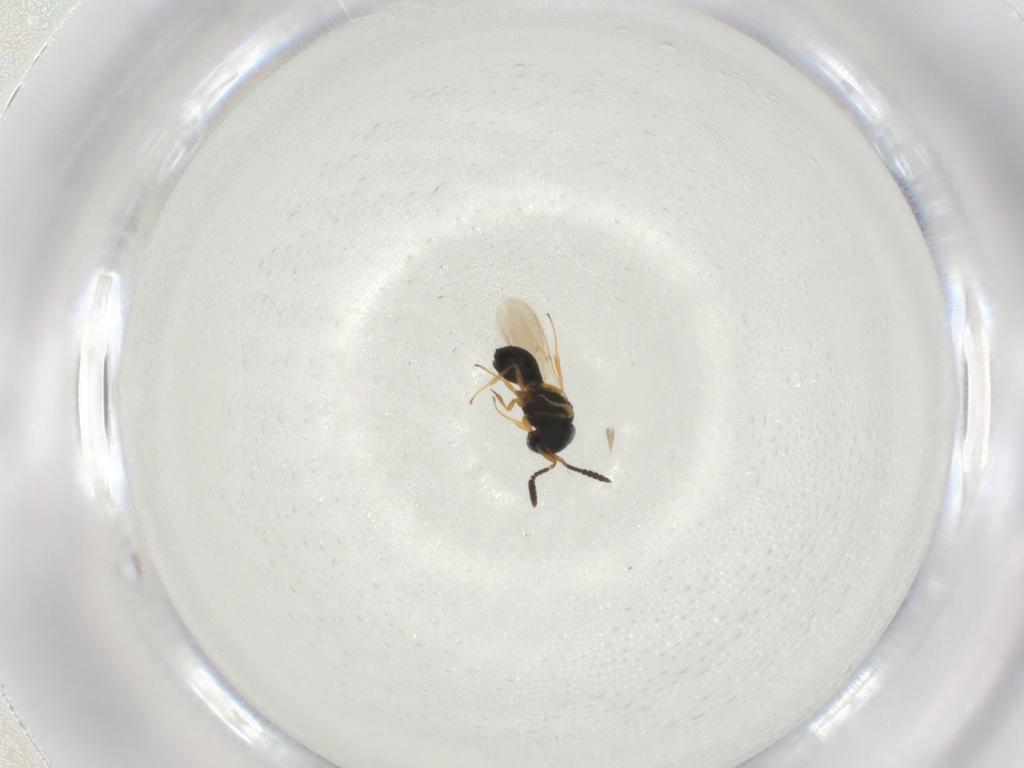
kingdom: Animalia
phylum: Arthropoda
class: Insecta
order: Hymenoptera
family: Scelionidae
